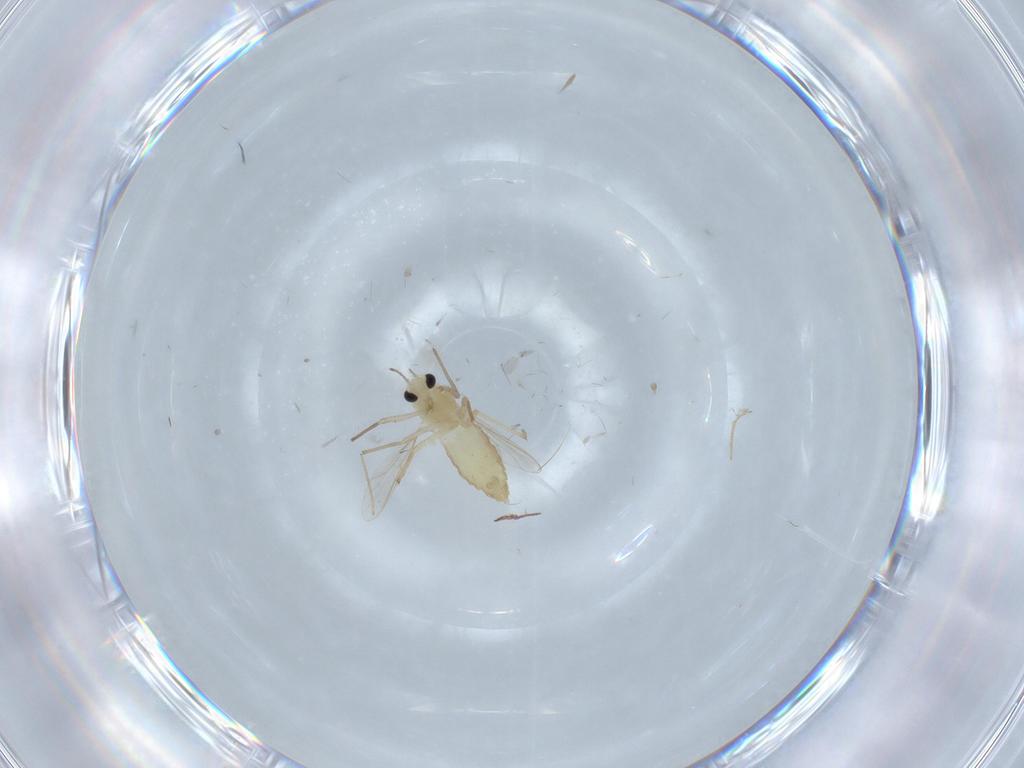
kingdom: Animalia
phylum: Arthropoda
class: Insecta
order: Diptera
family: Chironomidae
